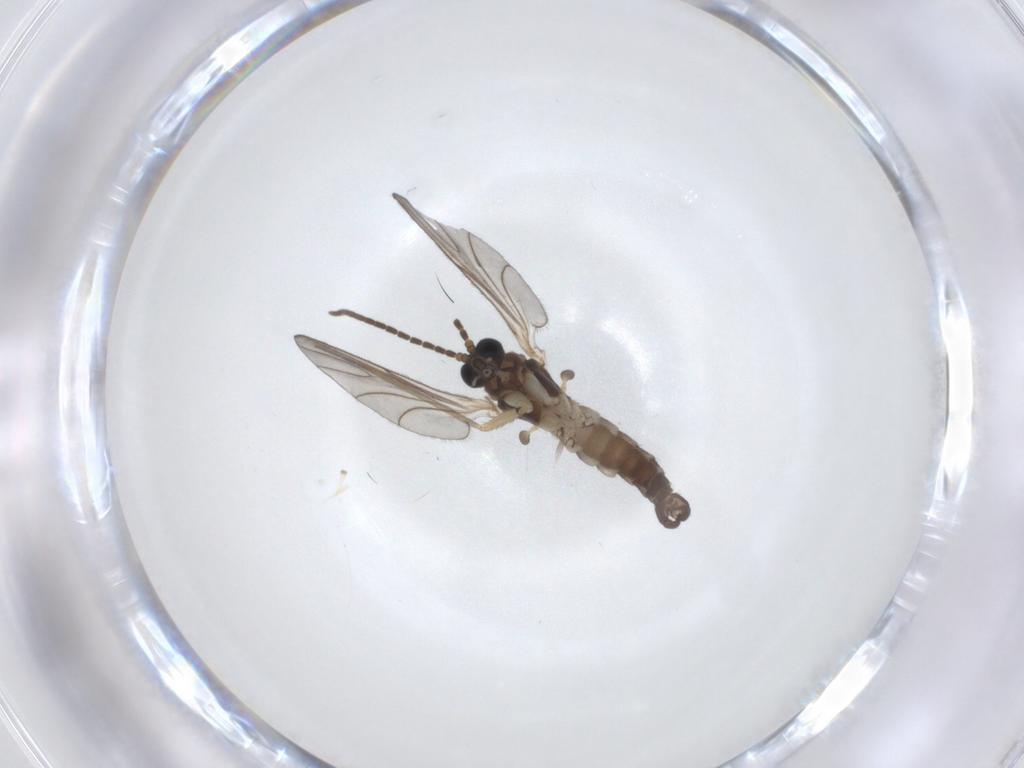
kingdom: Animalia
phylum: Arthropoda
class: Insecta
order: Diptera
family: Sciaridae
